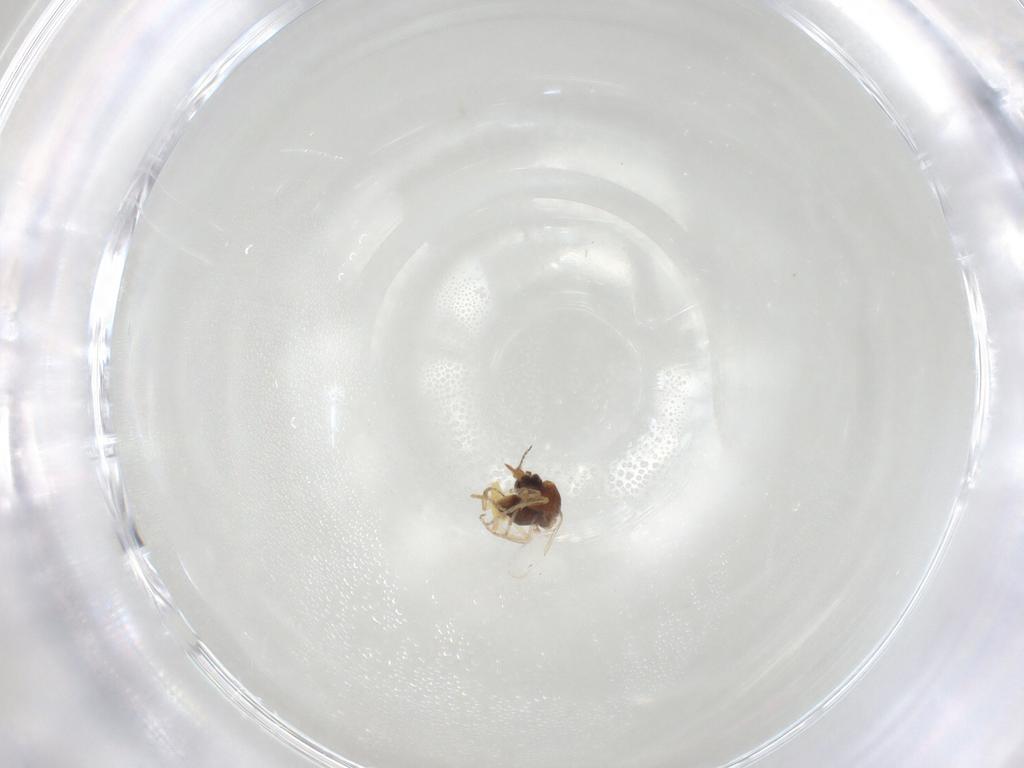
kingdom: Animalia
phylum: Arthropoda
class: Insecta
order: Diptera
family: Ceratopogonidae
